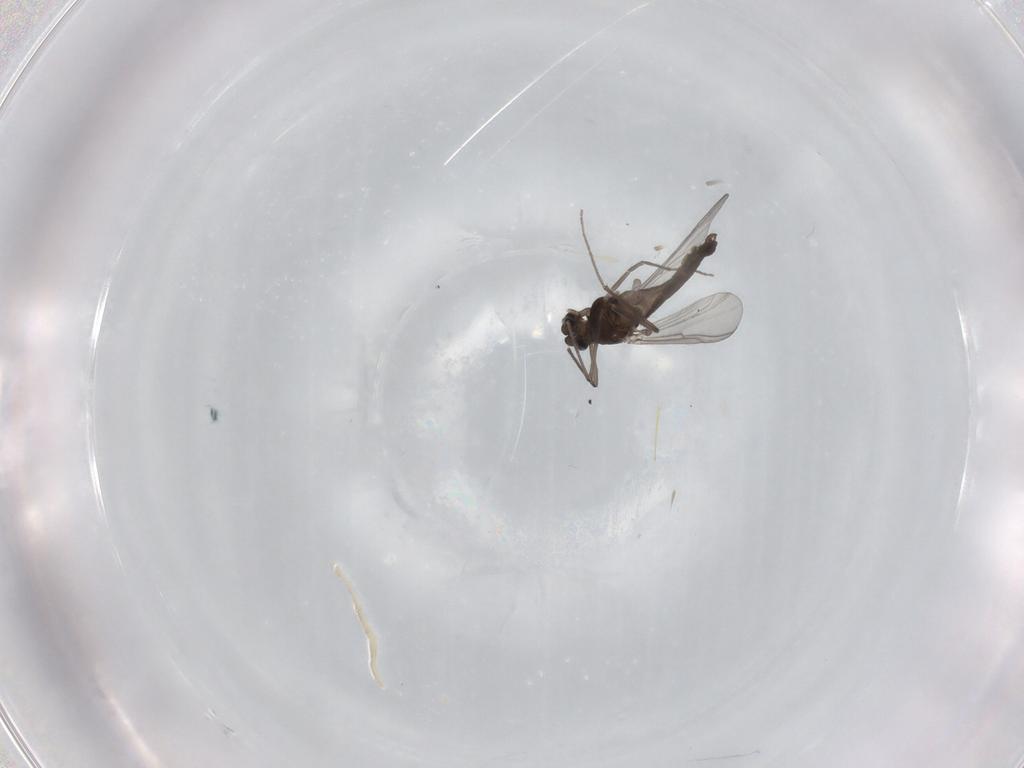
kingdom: Animalia
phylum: Arthropoda
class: Insecta
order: Diptera
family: Chironomidae
